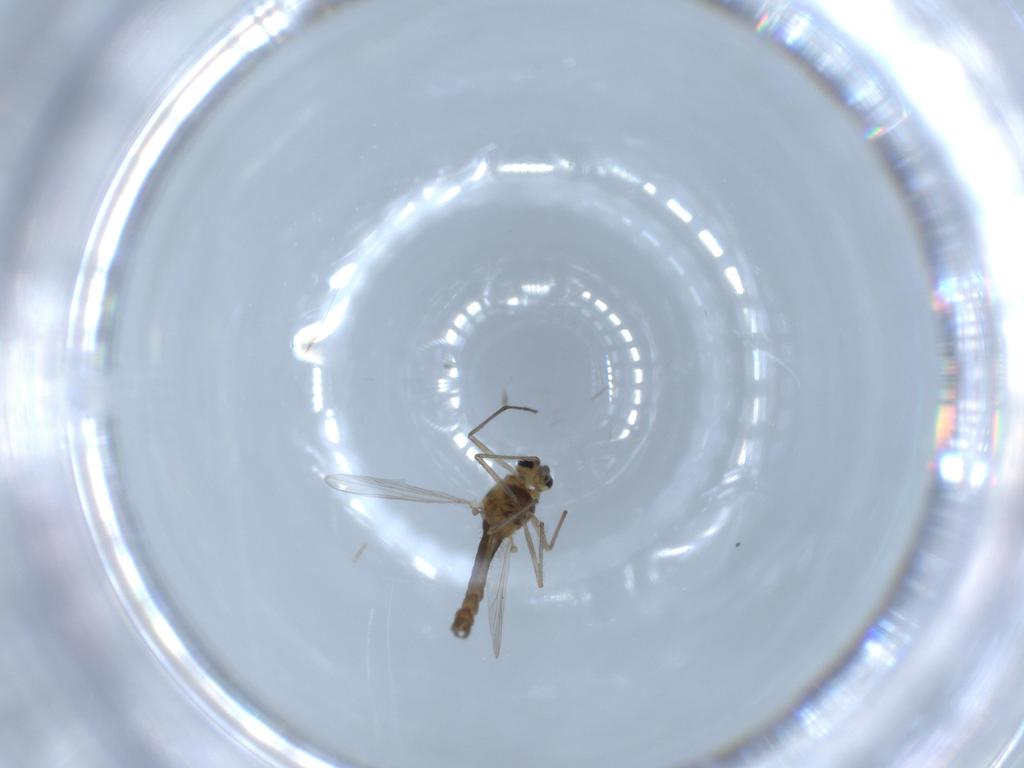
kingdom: Animalia
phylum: Arthropoda
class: Insecta
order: Diptera
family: Chironomidae
